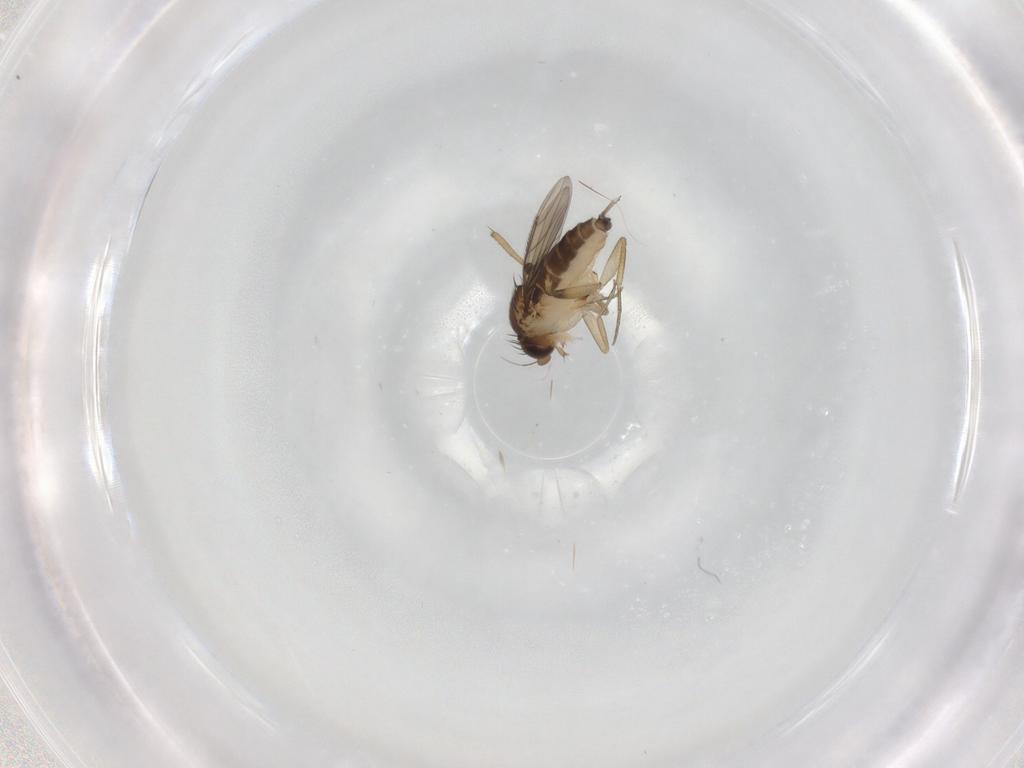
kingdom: Animalia
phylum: Arthropoda
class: Insecta
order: Diptera
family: Phoridae
